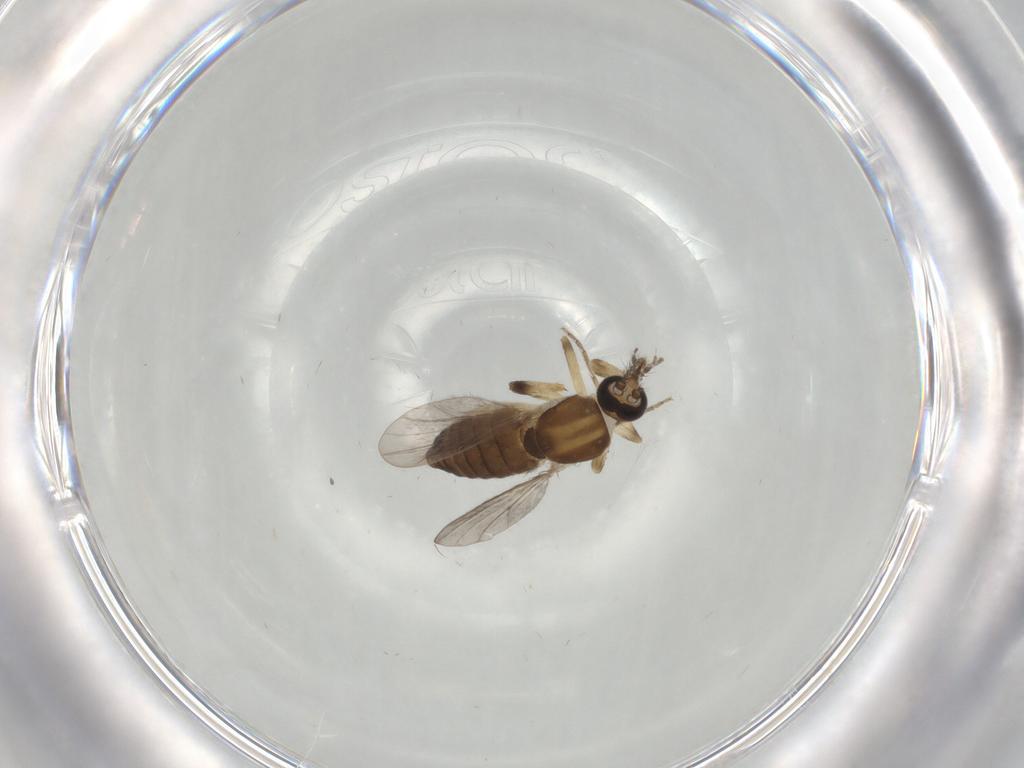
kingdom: Animalia
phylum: Arthropoda
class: Insecta
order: Diptera
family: Ceratopogonidae
